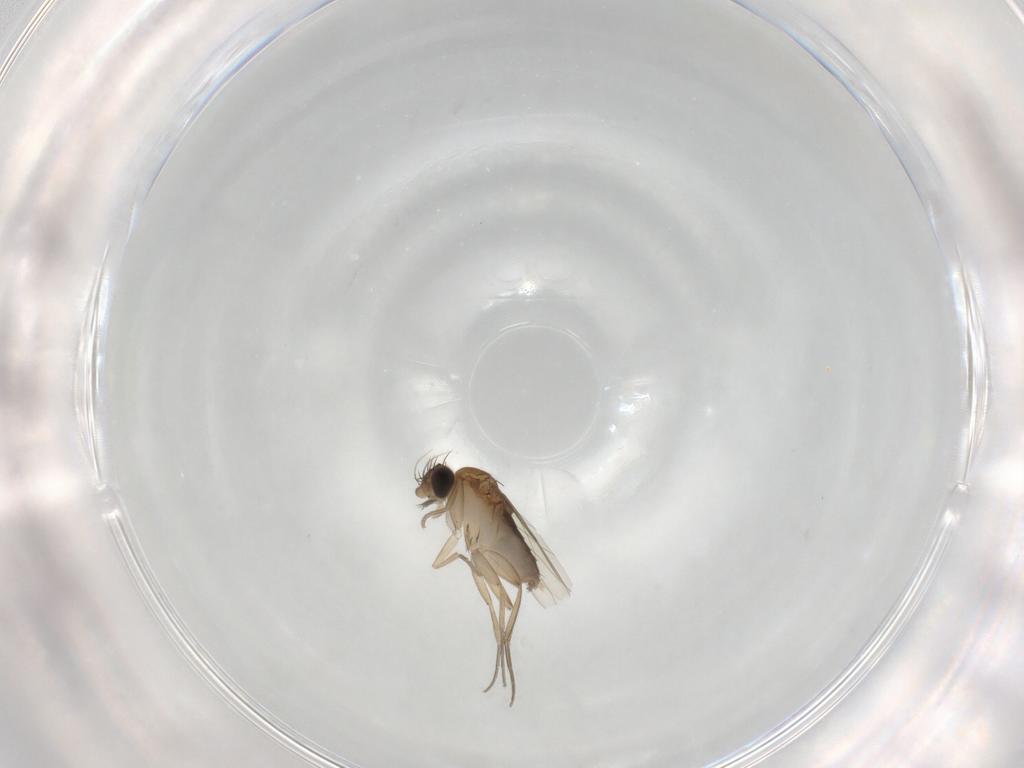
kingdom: Animalia
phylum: Arthropoda
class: Insecta
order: Diptera
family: Phoridae
